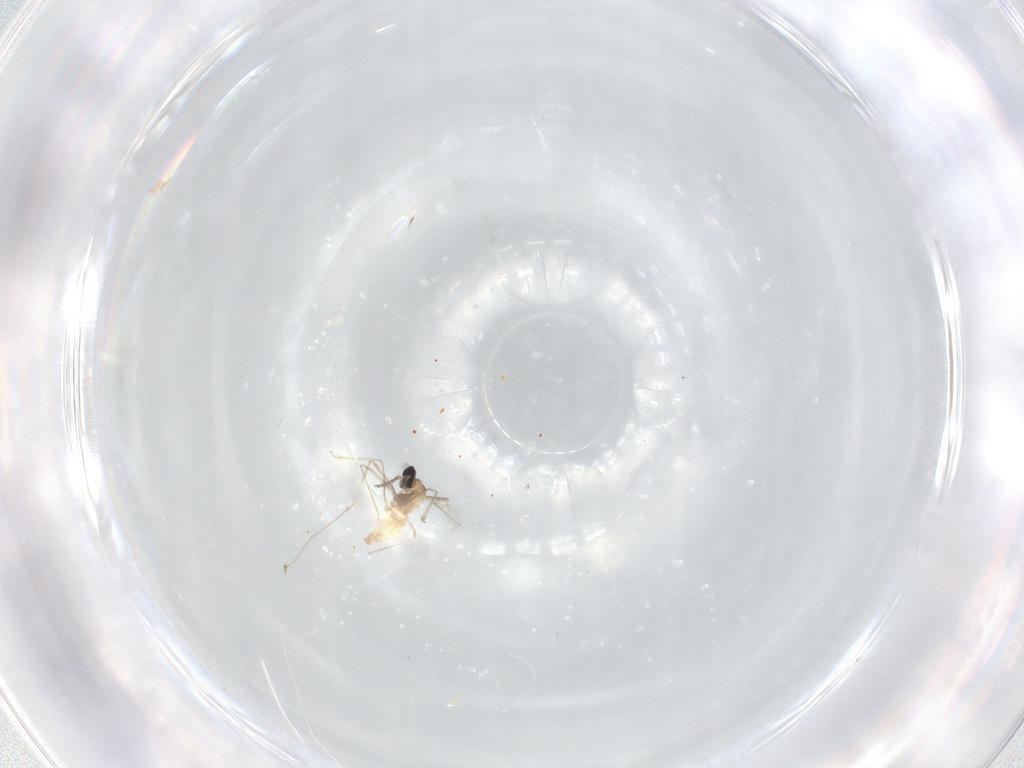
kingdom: Animalia
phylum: Arthropoda
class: Insecta
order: Diptera
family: Cecidomyiidae
